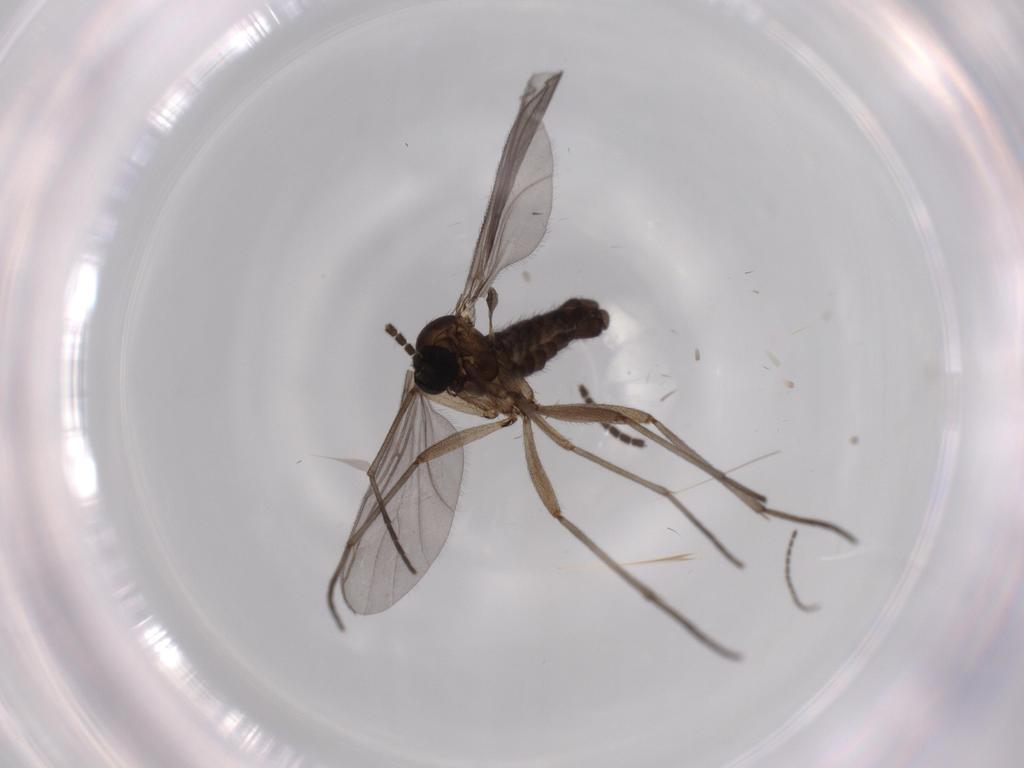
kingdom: Animalia
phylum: Arthropoda
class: Insecta
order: Diptera
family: Sciaridae
